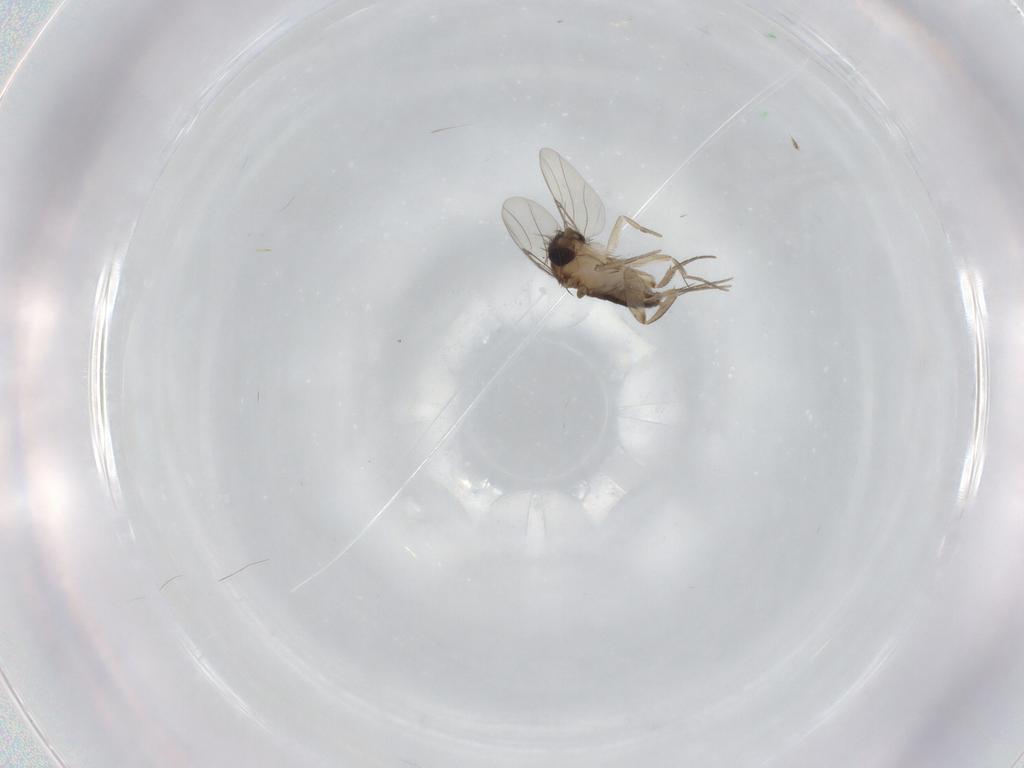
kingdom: Animalia
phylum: Arthropoda
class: Insecta
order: Diptera
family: Phoridae
